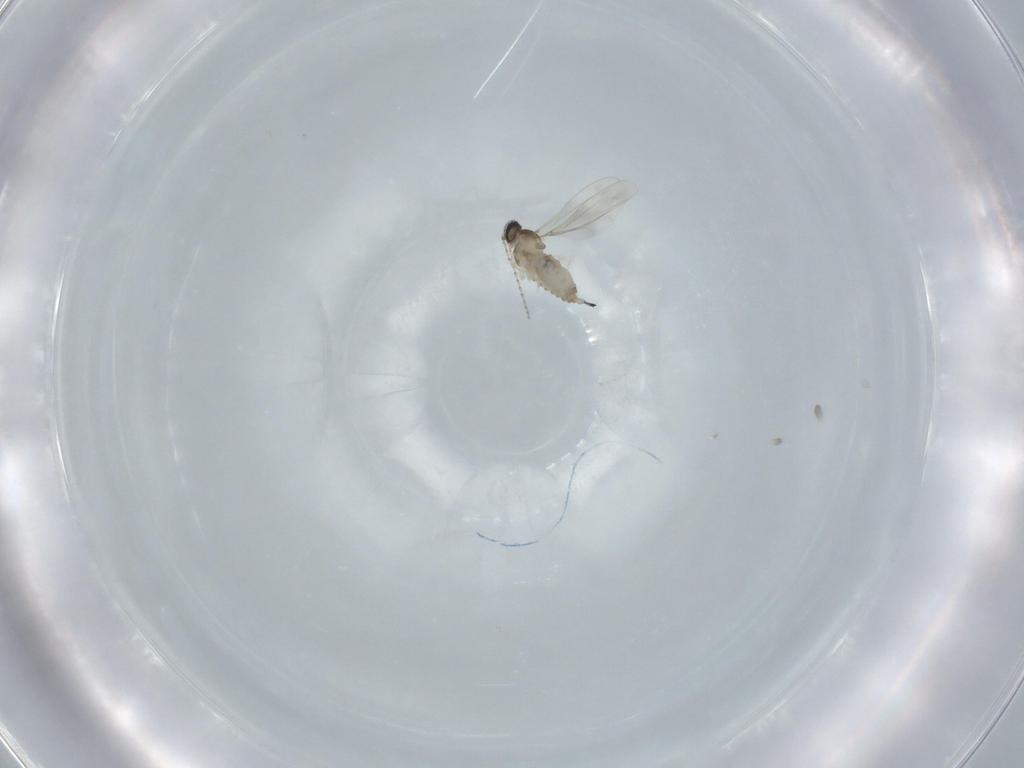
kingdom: Animalia
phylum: Arthropoda
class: Insecta
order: Diptera
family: Cecidomyiidae
